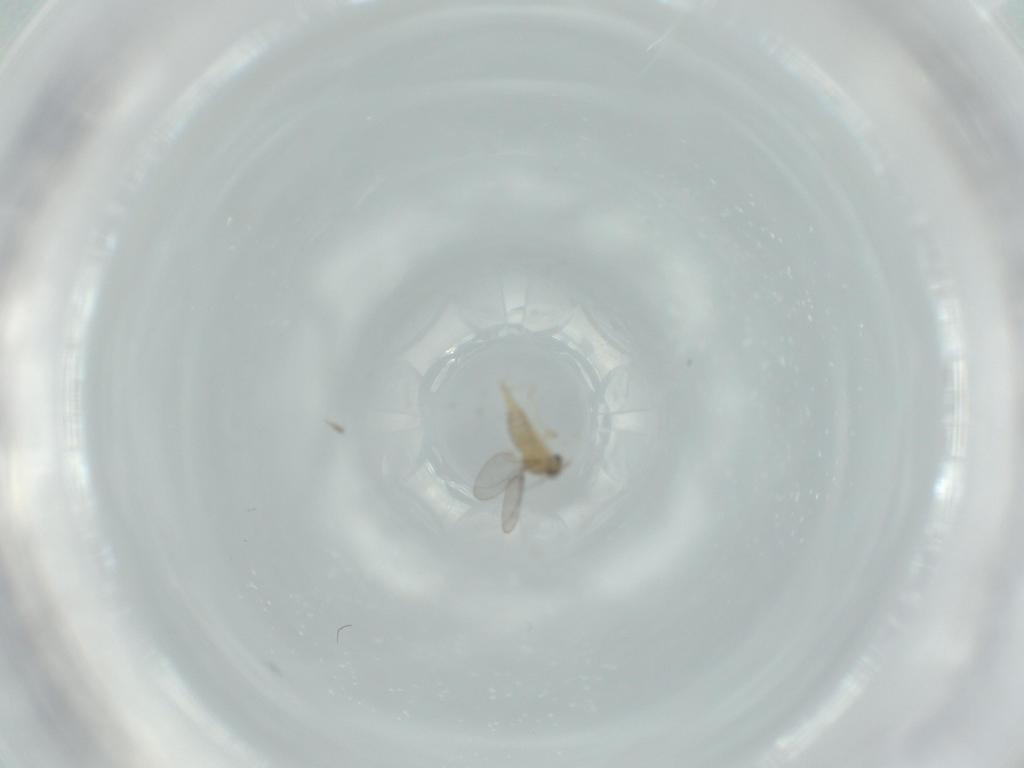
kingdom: Animalia
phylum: Arthropoda
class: Insecta
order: Diptera
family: Cecidomyiidae
